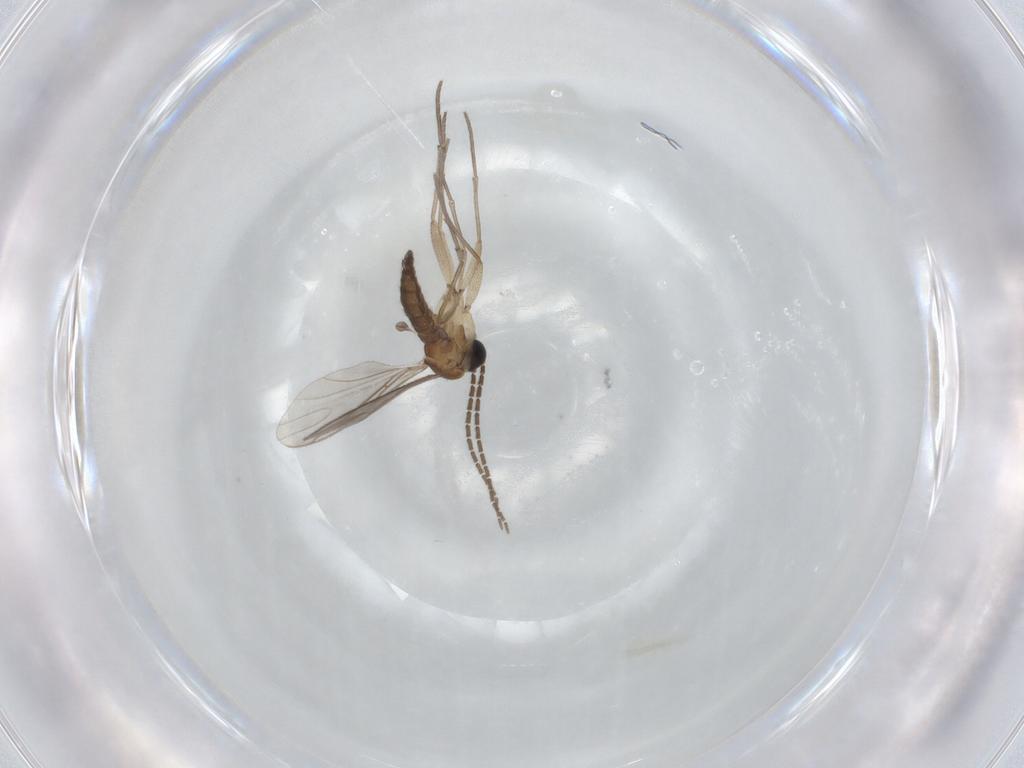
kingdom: Animalia
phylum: Arthropoda
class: Insecta
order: Diptera
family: Sciaridae
